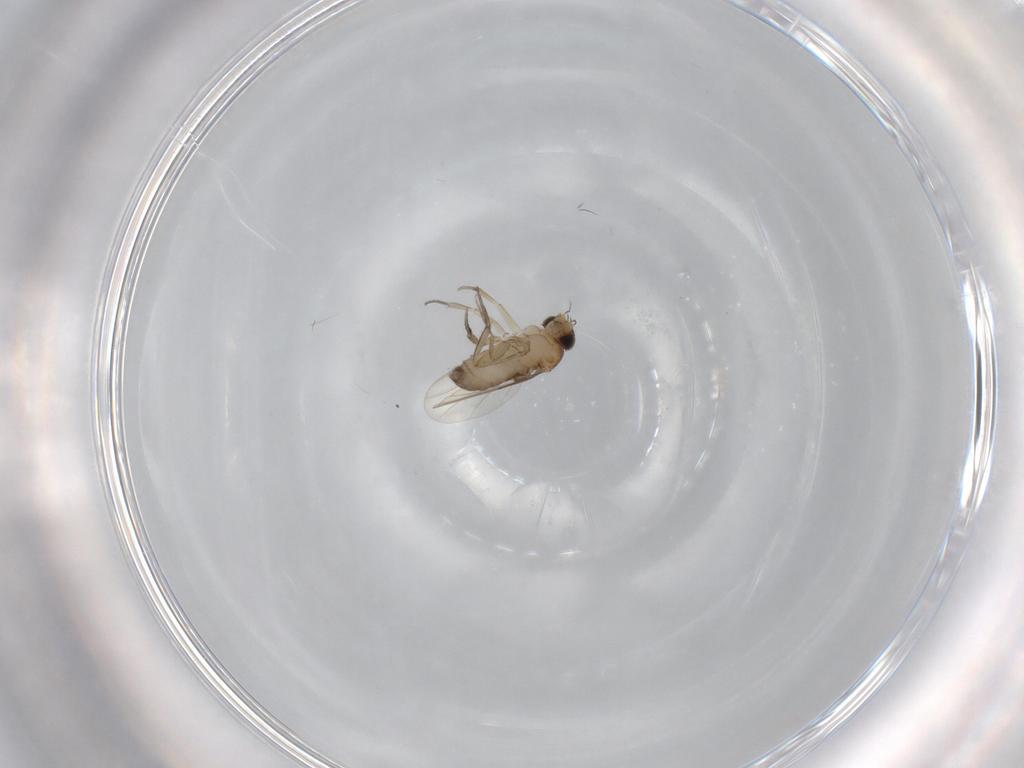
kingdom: Animalia
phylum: Arthropoda
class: Insecta
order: Diptera
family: Phoridae
